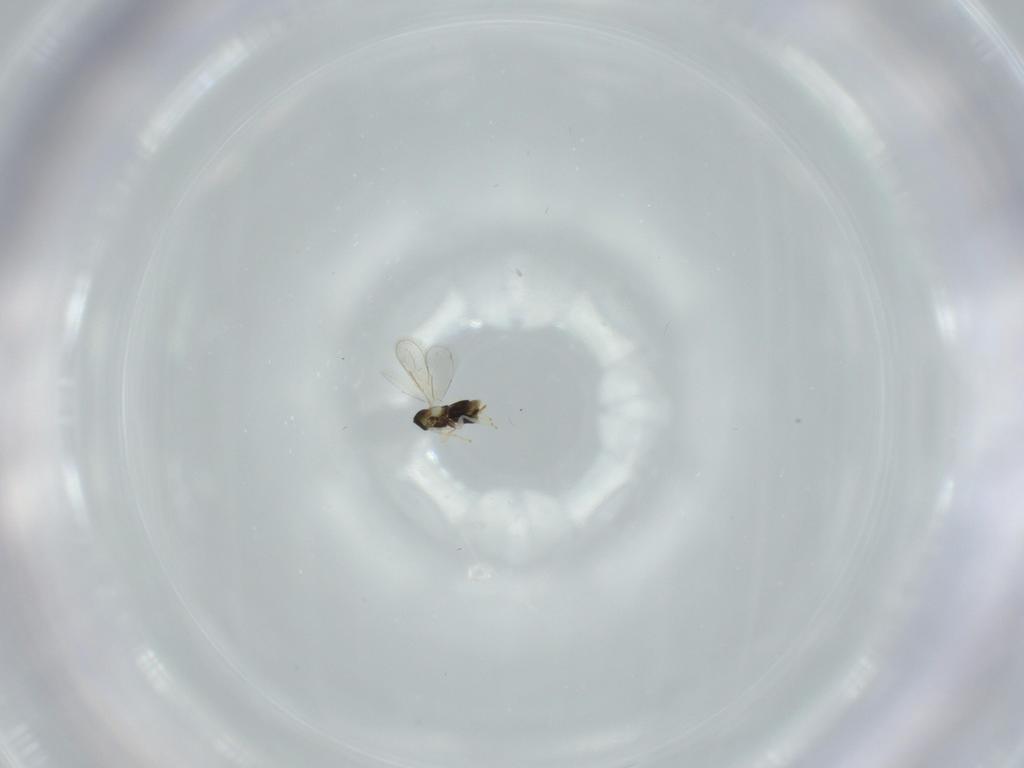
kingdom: Animalia
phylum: Arthropoda
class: Insecta
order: Hymenoptera
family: Aphelinidae
